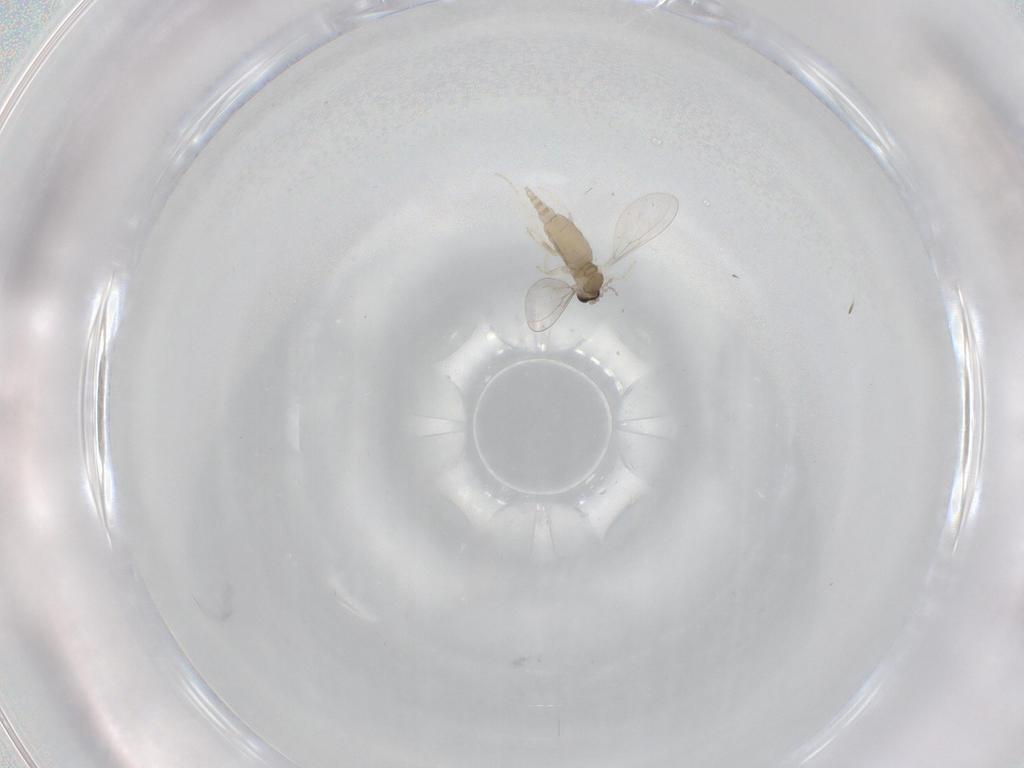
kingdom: Animalia
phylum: Arthropoda
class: Insecta
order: Diptera
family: Cecidomyiidae
